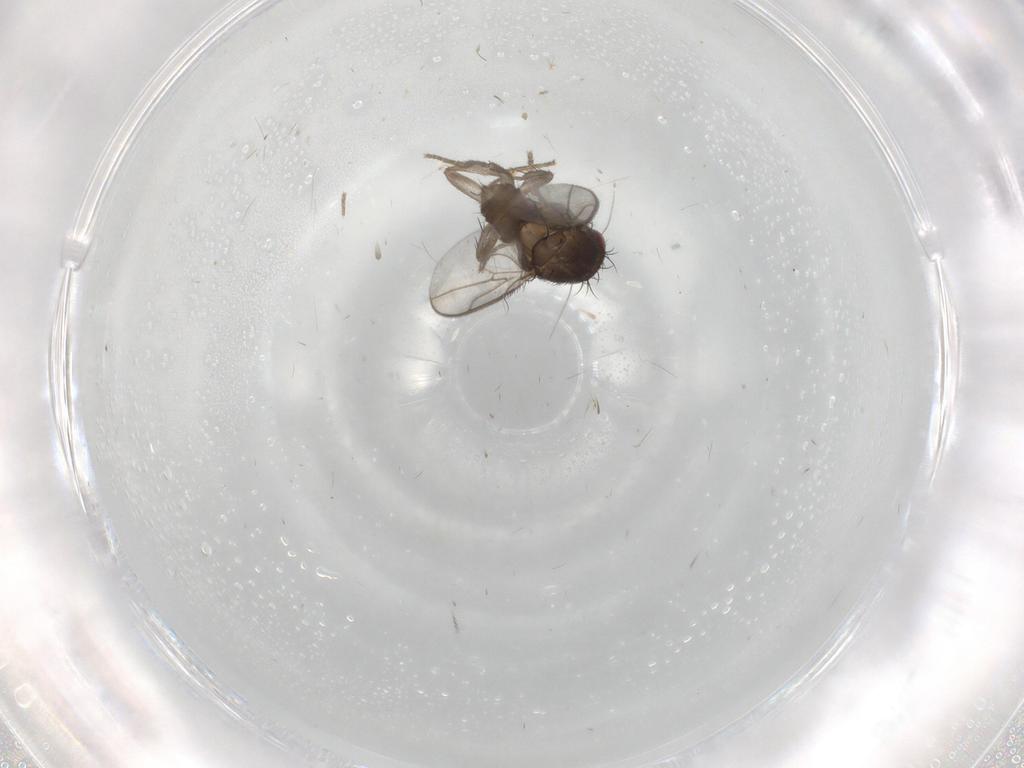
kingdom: Animalia
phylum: Arthropoda
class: Insecta
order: Diptera
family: Sphaeroceridae
